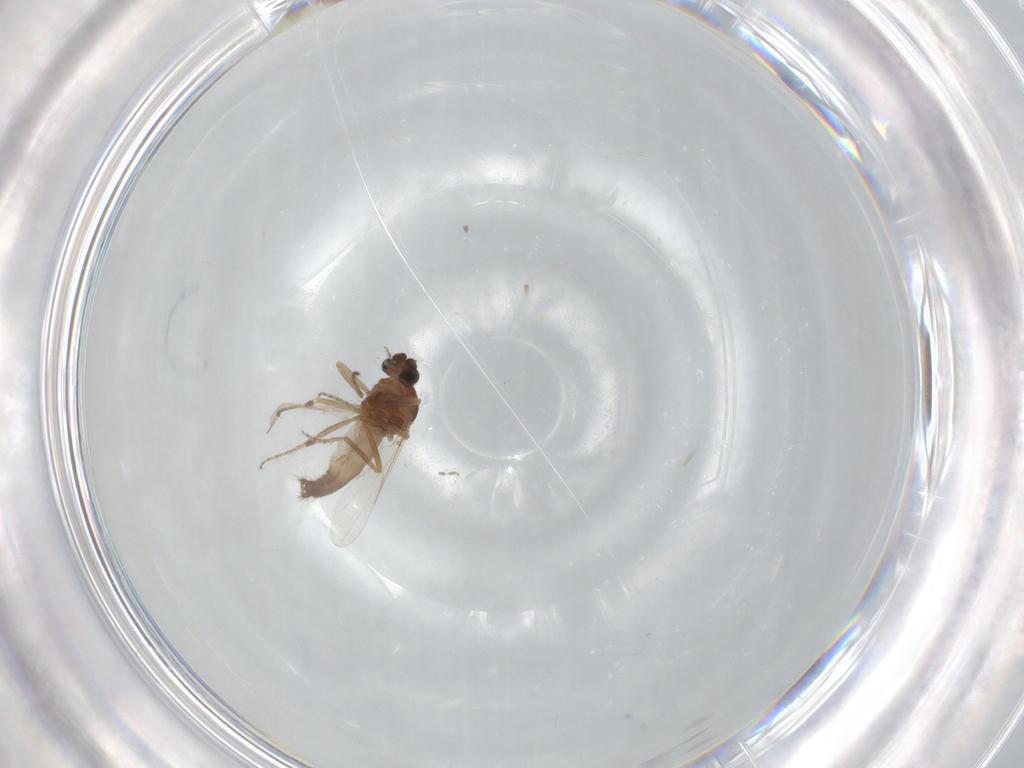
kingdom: Animalia
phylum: Arthropoda
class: Insecta
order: Diptera
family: Ceratopogonidae
